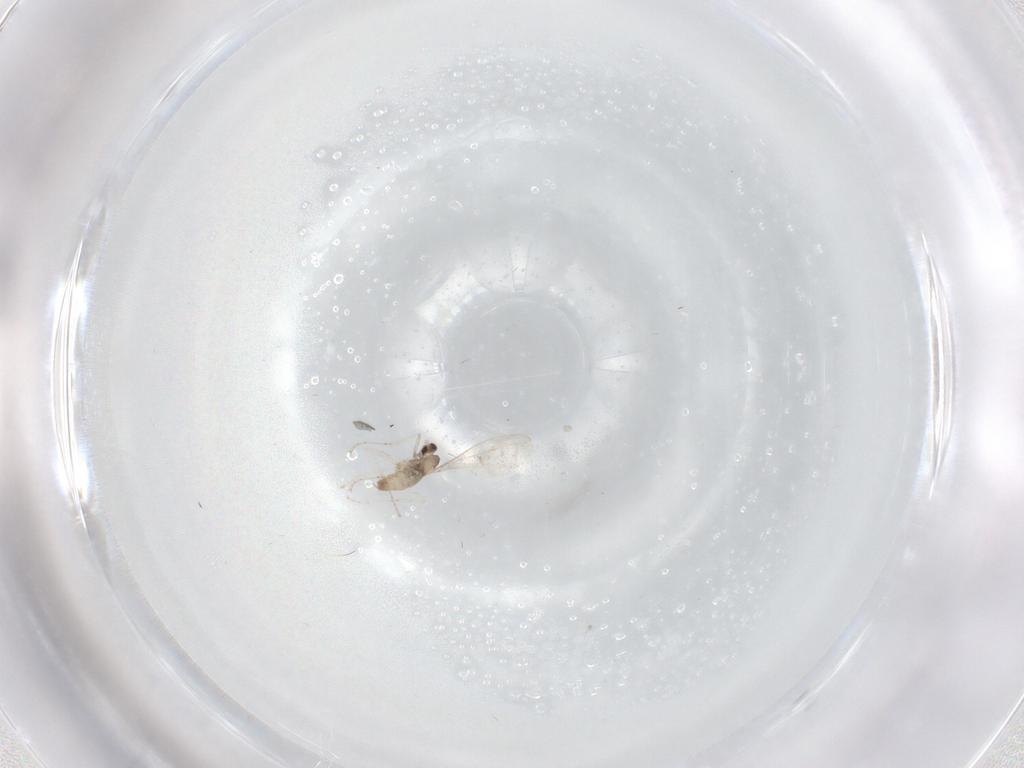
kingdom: Animalia
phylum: Arthropoda
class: Insecta
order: Diptera
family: Cecidomyiidae
